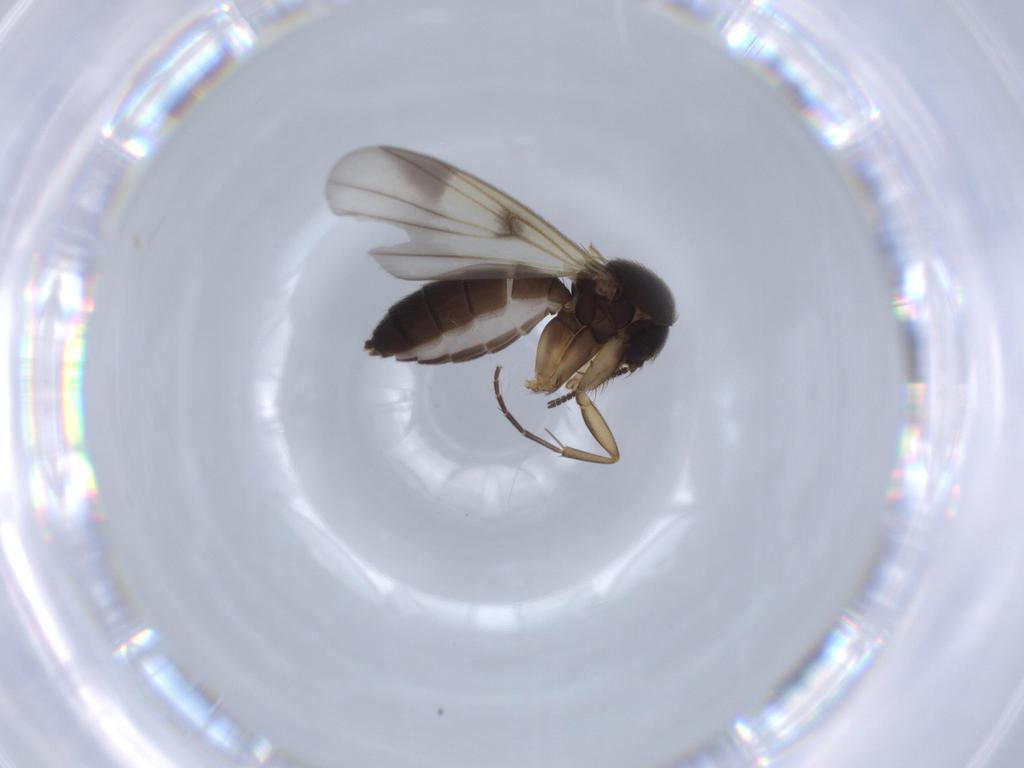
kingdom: Animalia
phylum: Arthropoda
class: Insecta
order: Diptera
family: Mycetophilidae
